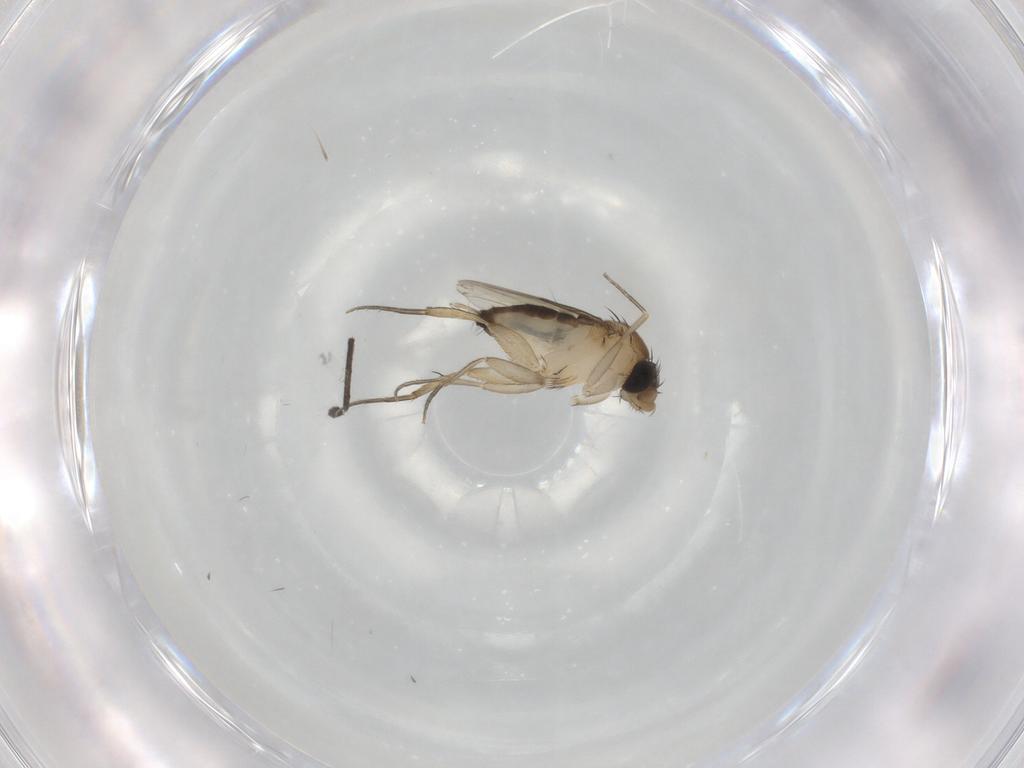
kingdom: Animalia
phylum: Arthropoda
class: Insecta
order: Diptera
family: Phoridae
